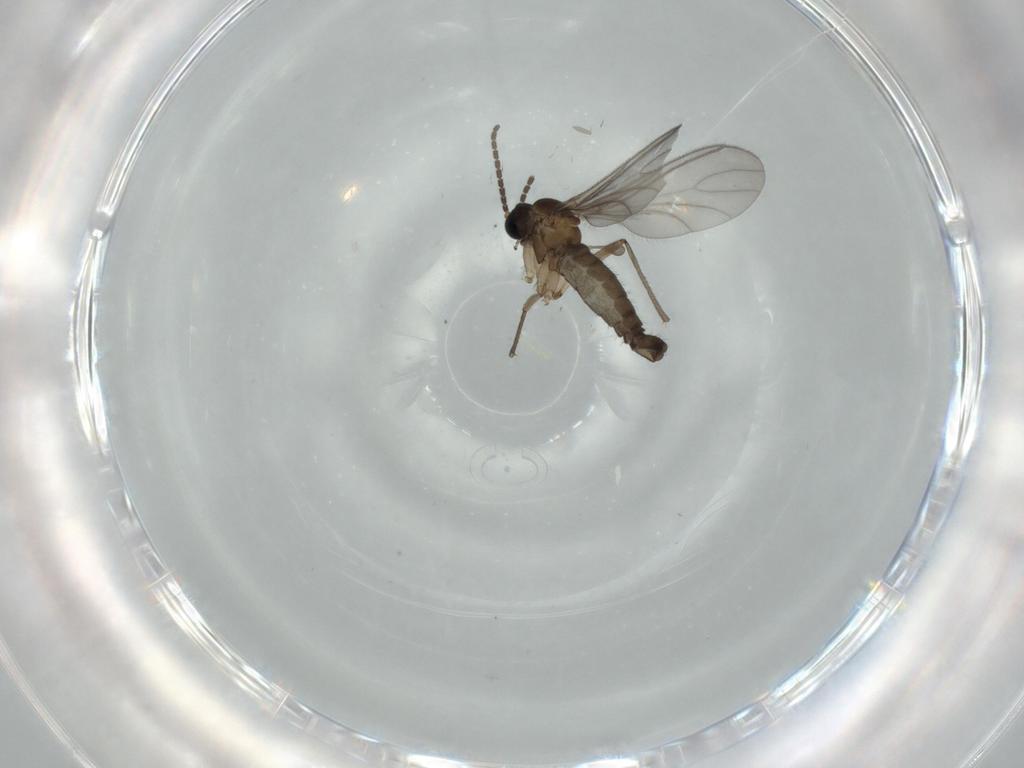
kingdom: Animalia
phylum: Arthropoda
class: Insecta
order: Diptera
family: Sciaridae
